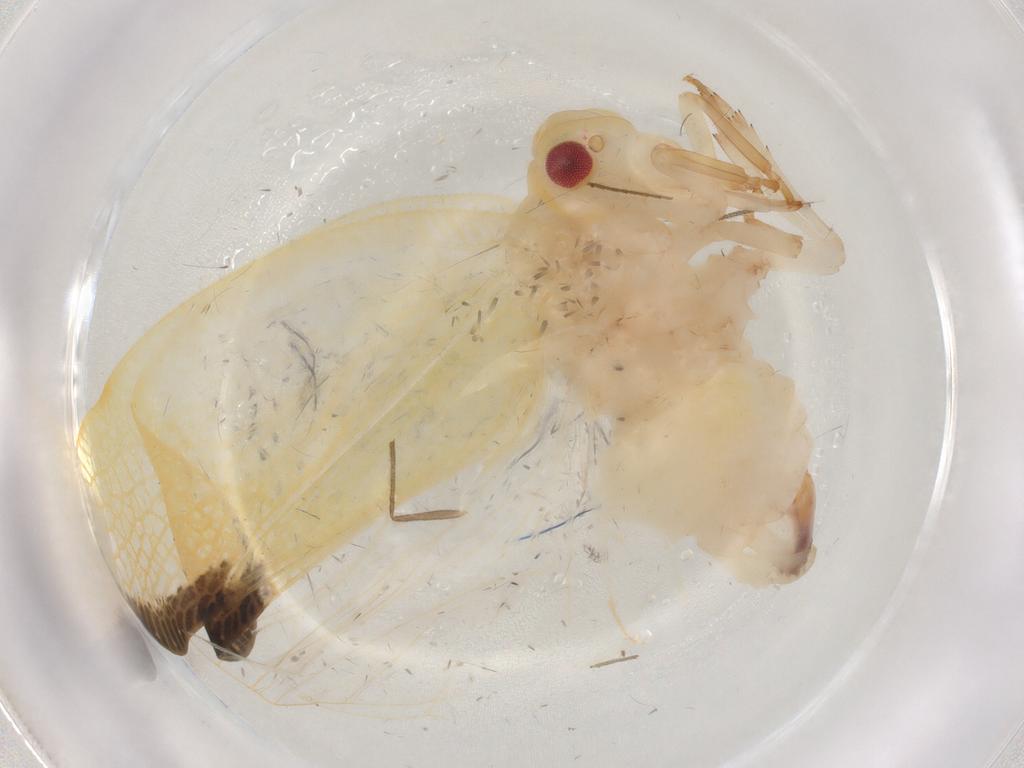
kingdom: Animalia
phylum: Arthropoda
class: Insecta
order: Hemiptera
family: Flatidae
